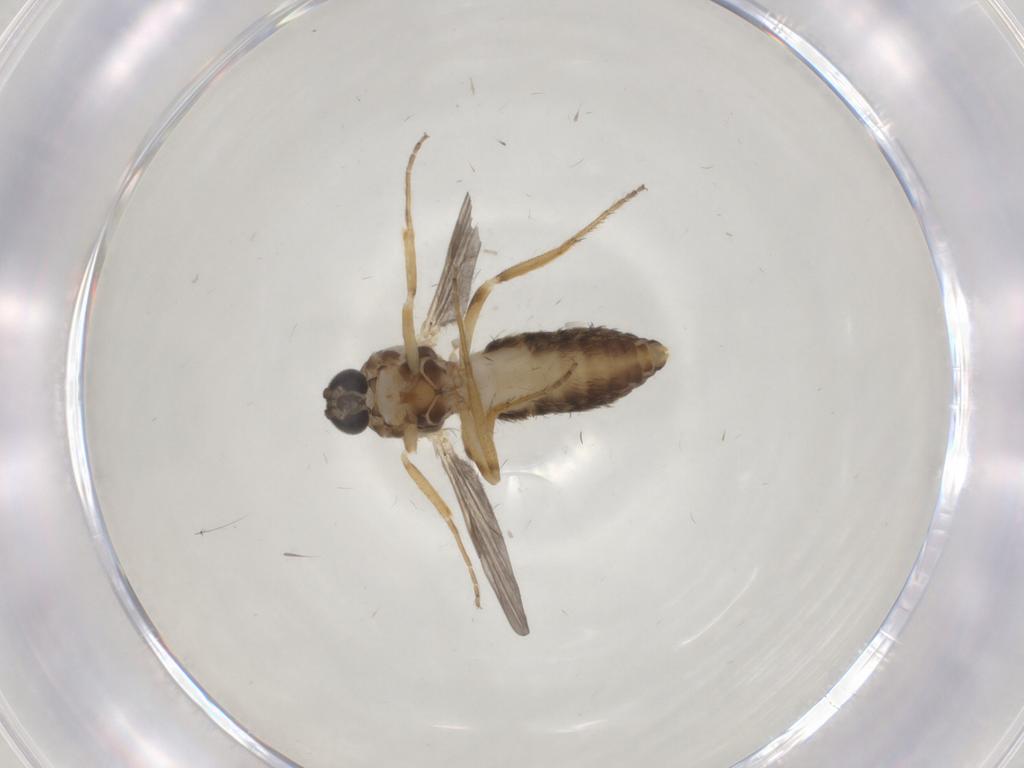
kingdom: Animalia
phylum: Arthropoda
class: Insecta
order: Diptera
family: Ceratopogonidae
